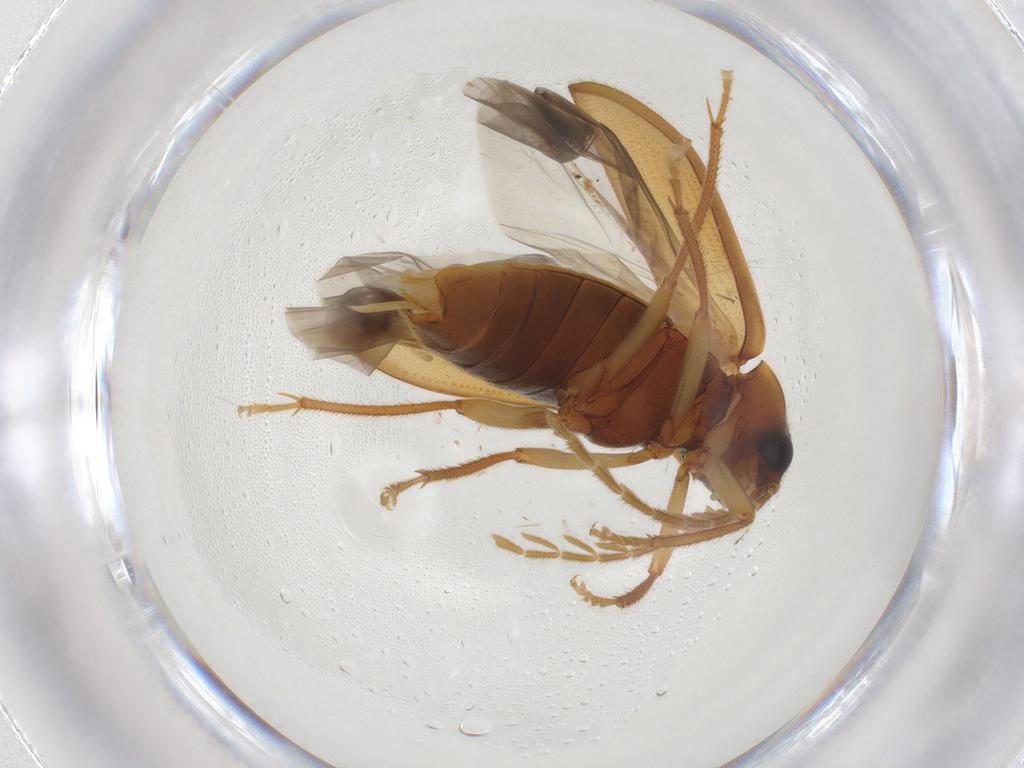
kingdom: Animalia
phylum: Arthropoda
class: Insecta
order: Coleoptera
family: Ptilodactylidae
